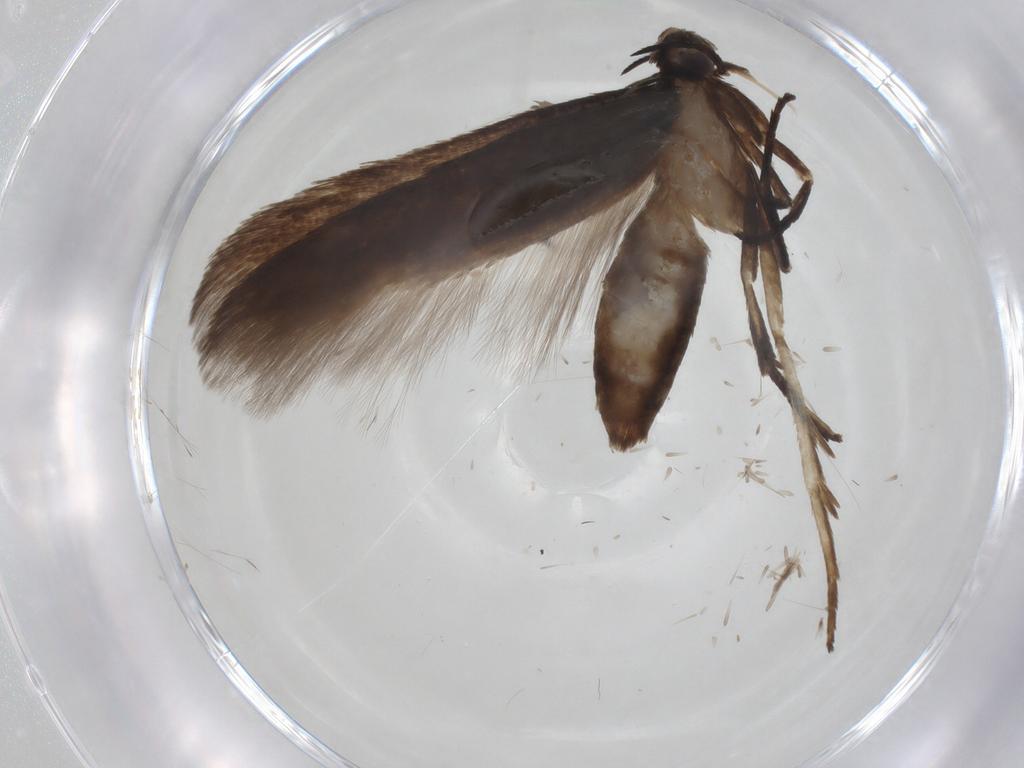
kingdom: Animalia
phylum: Arthropoda
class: Insecta
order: Lepidoptera
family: Cosmopterigidae
